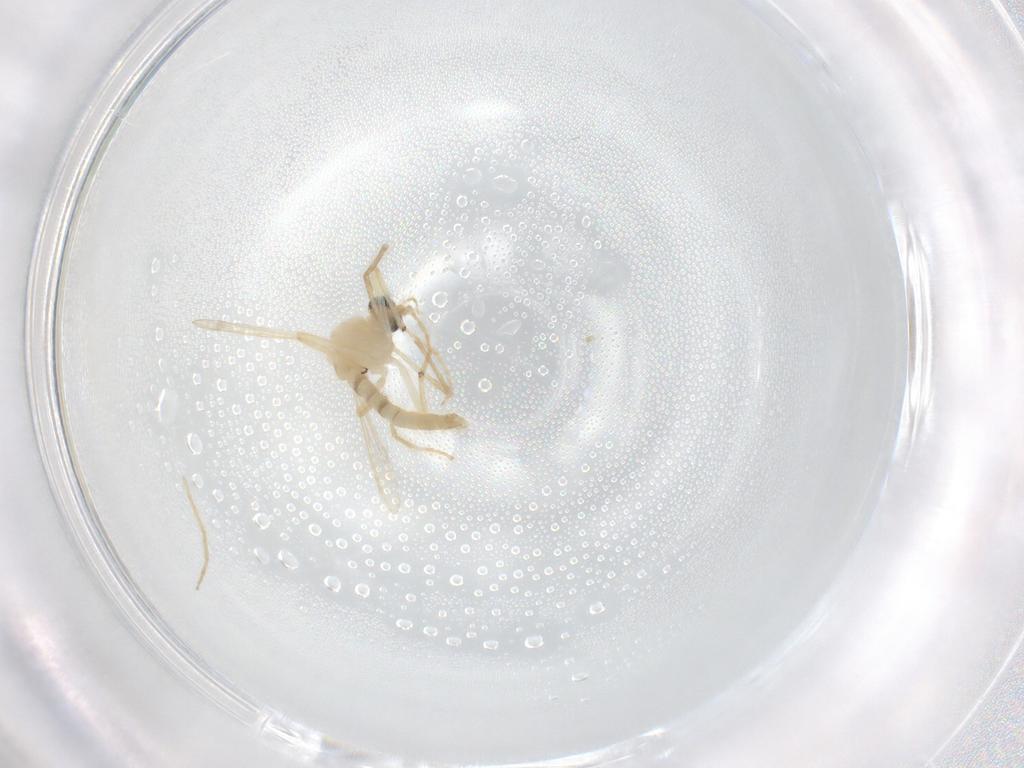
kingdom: Animalia
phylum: Arthropoda
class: Insecta
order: Diptera
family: Chironomidae
